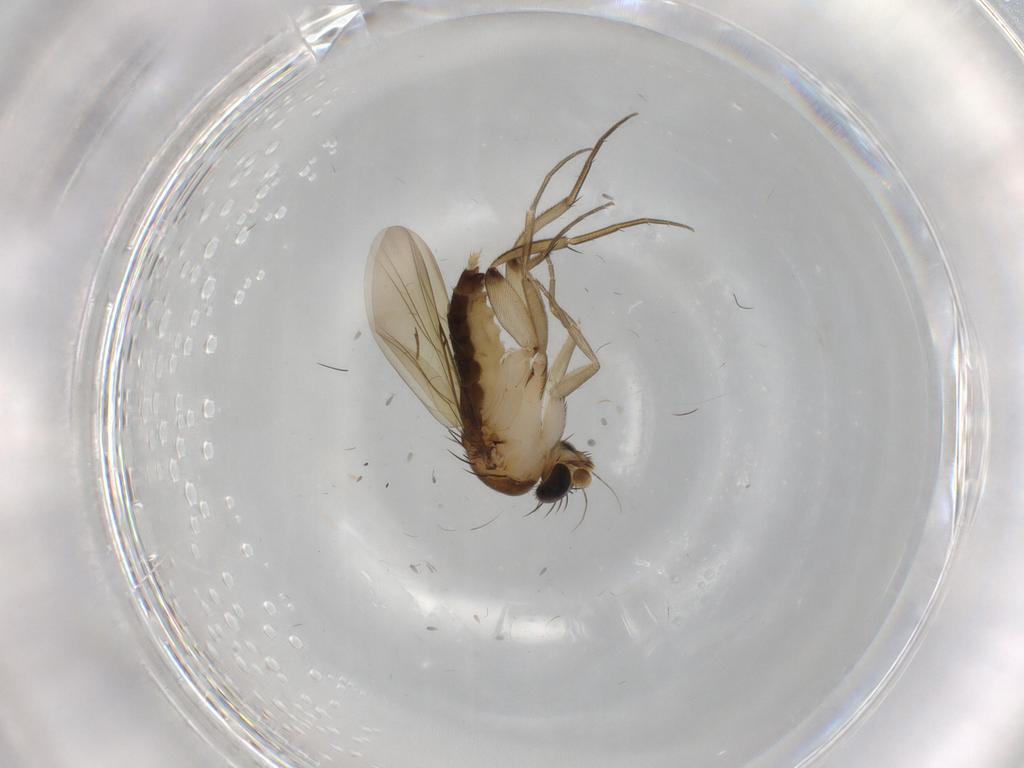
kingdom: Animalia
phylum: Arthropoda
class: Insecta
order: Diptera
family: Phoridae
